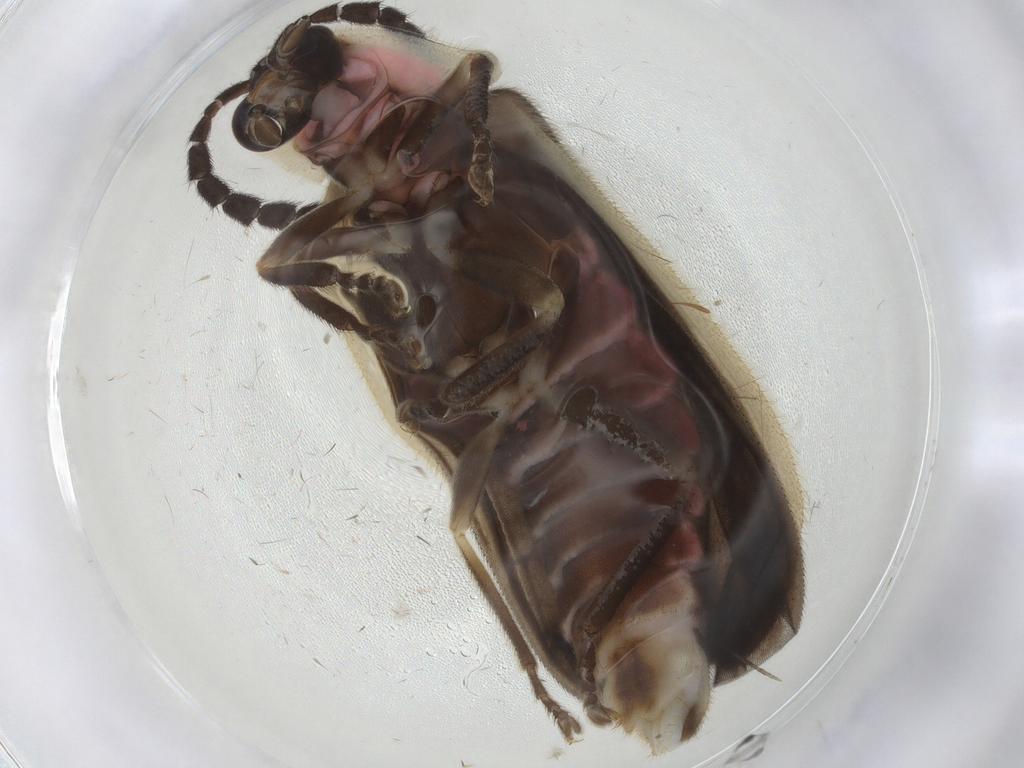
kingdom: Animalia
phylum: Arthropoda
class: Insecta
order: Coleoptera
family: Lampyridae
